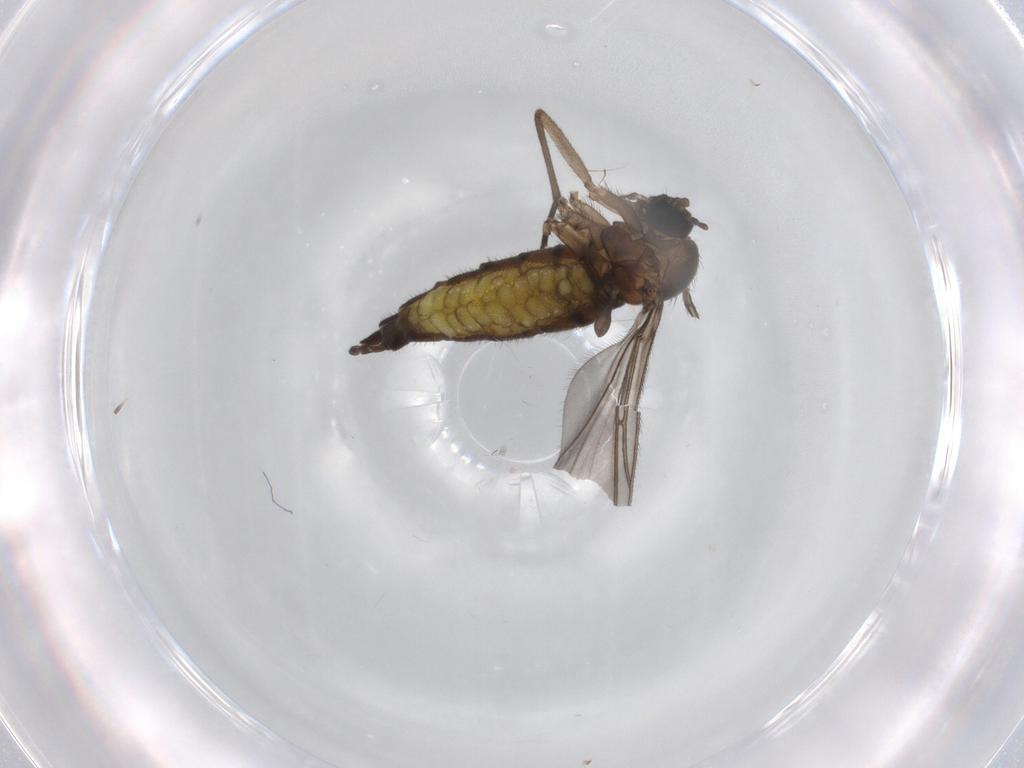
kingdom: Animalia
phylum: Arthropoda
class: Insecta
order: Diptera
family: Sciaridae
